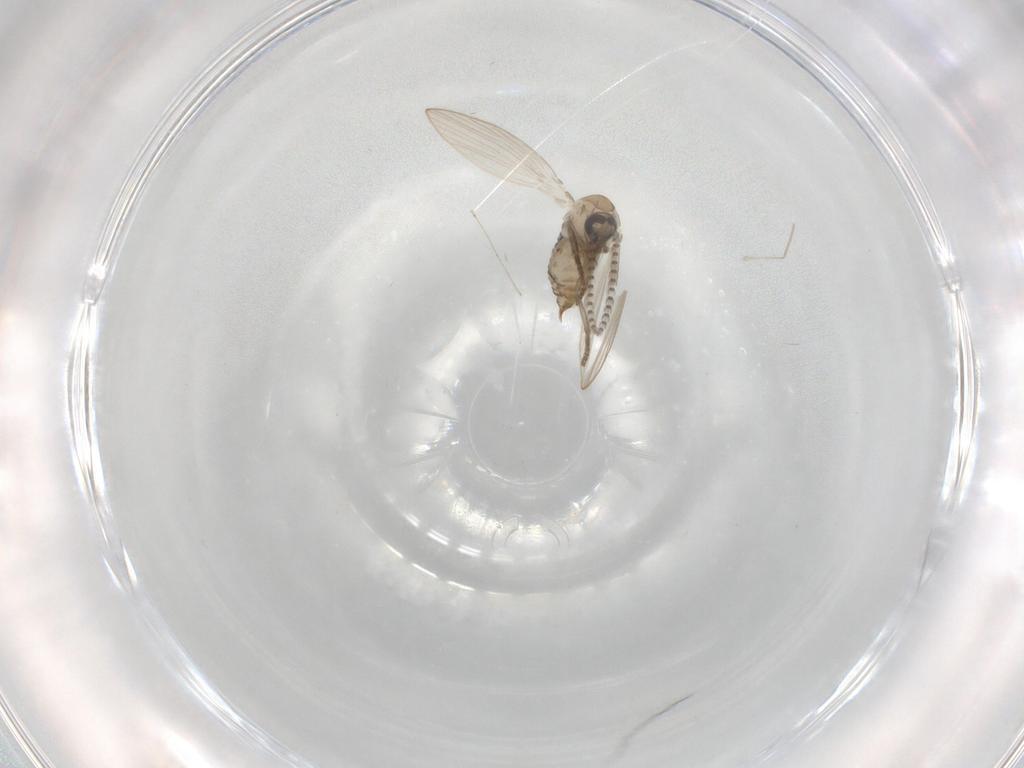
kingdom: Animalia
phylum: Arthropoda
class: Insecta
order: Diptera
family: Psychodidae
